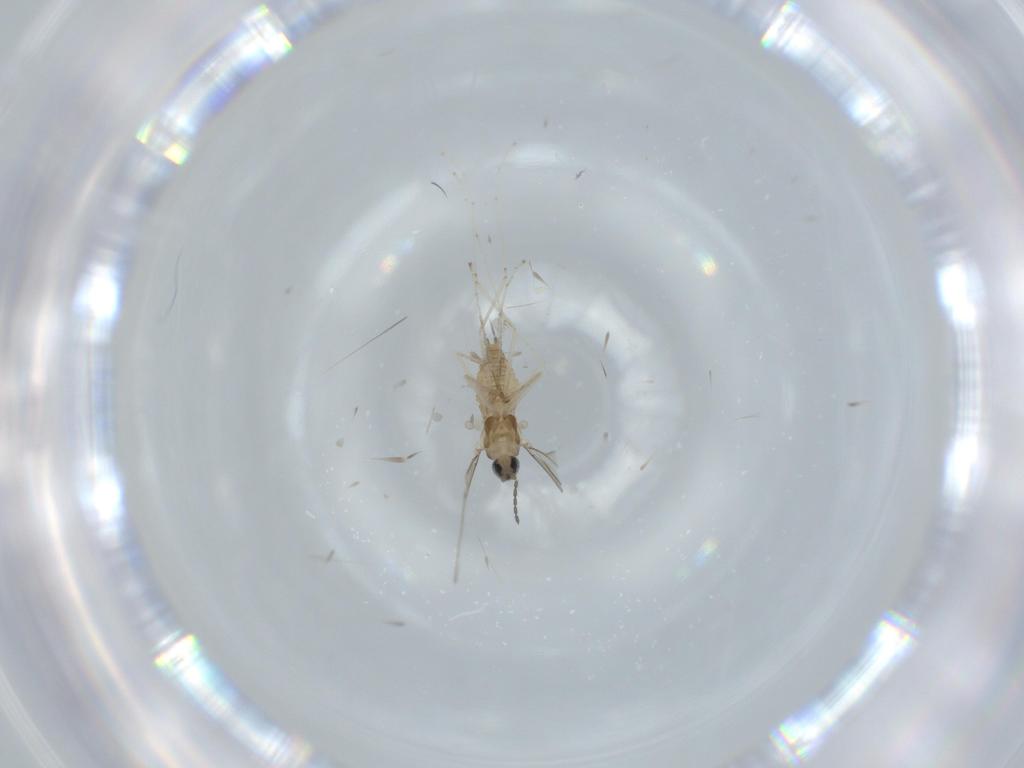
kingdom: Animalia
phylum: Arthropoda
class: Insecta
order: Diptera
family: Cecidomyiidae
